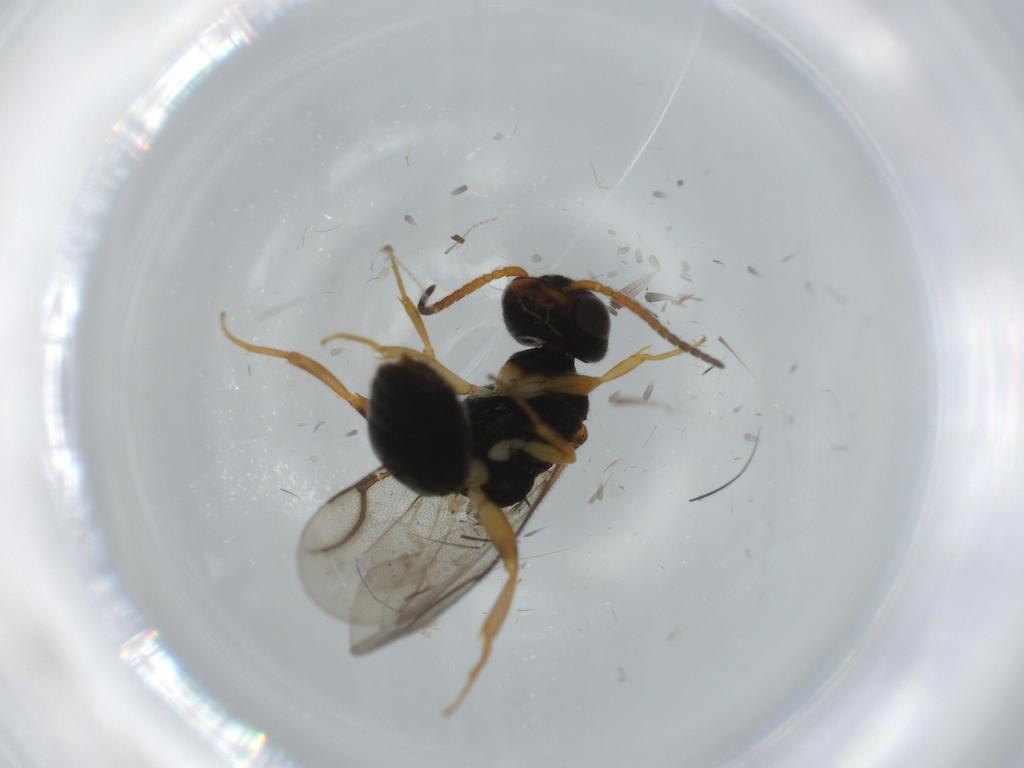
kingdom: Animalia
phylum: Arthropoda
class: Insecta
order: Hymenoptera
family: Bethylidae
